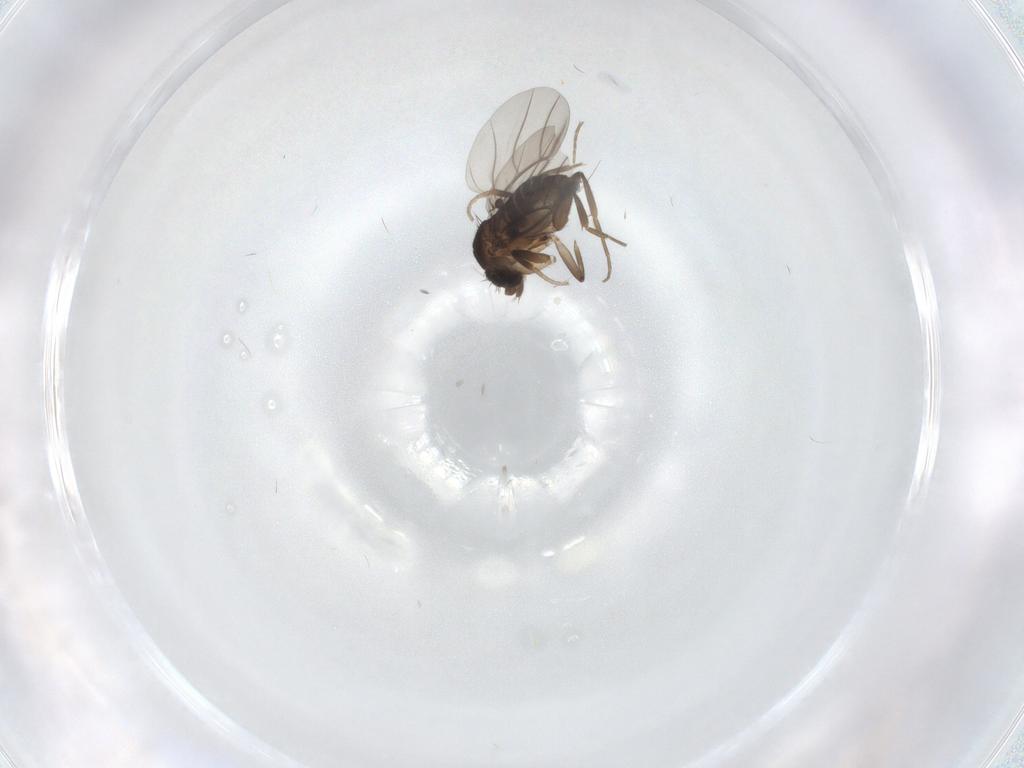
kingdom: Animalia
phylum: Arthropoda
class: Insecta
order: Diptera
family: Phoridae
